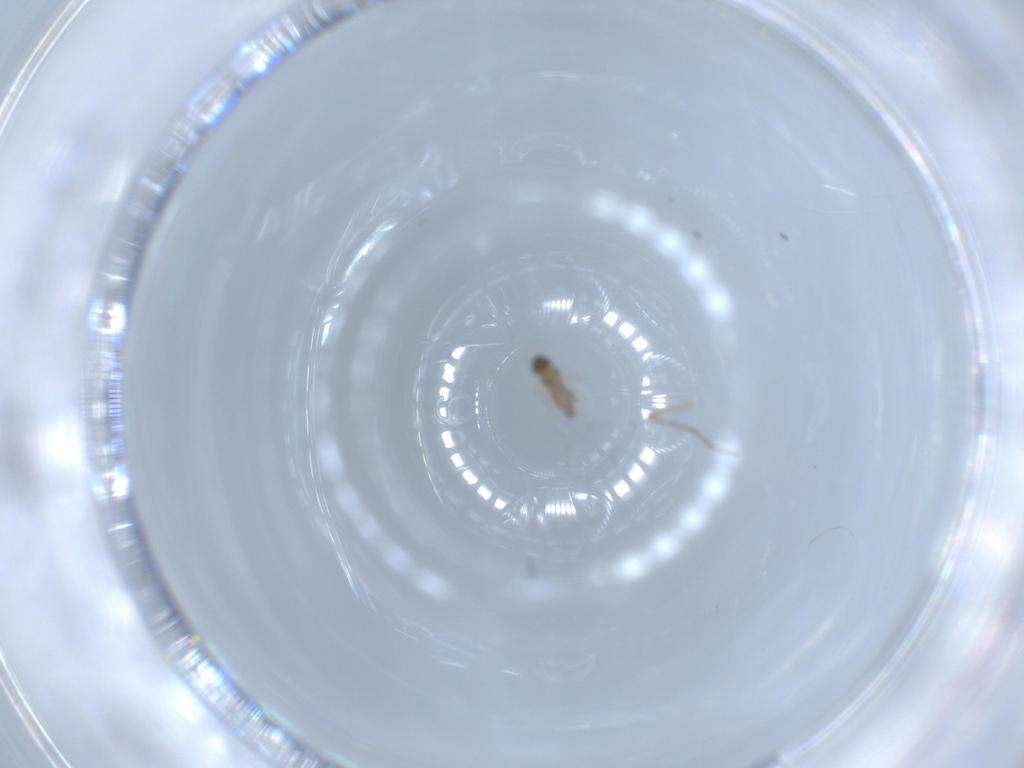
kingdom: Animalia
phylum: Arthropoda
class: Insecta
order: Diptera
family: Cecidomyiidae
